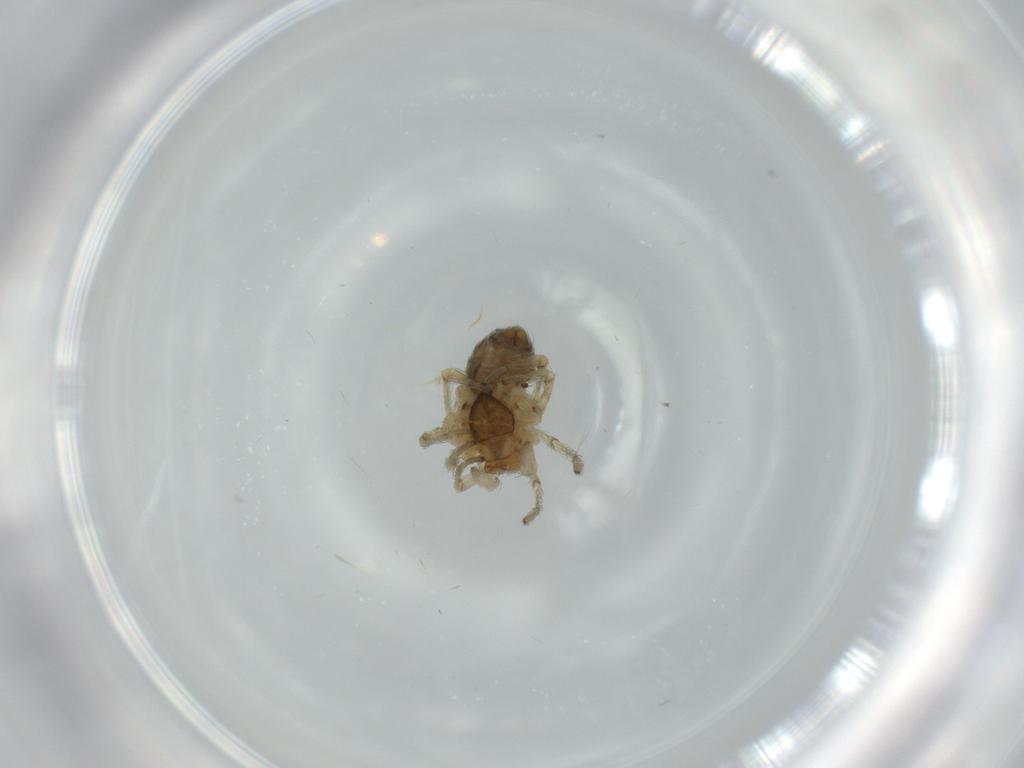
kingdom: Animalia
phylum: Arthropoda
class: Arachnida
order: Araneae
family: Dictynidae
